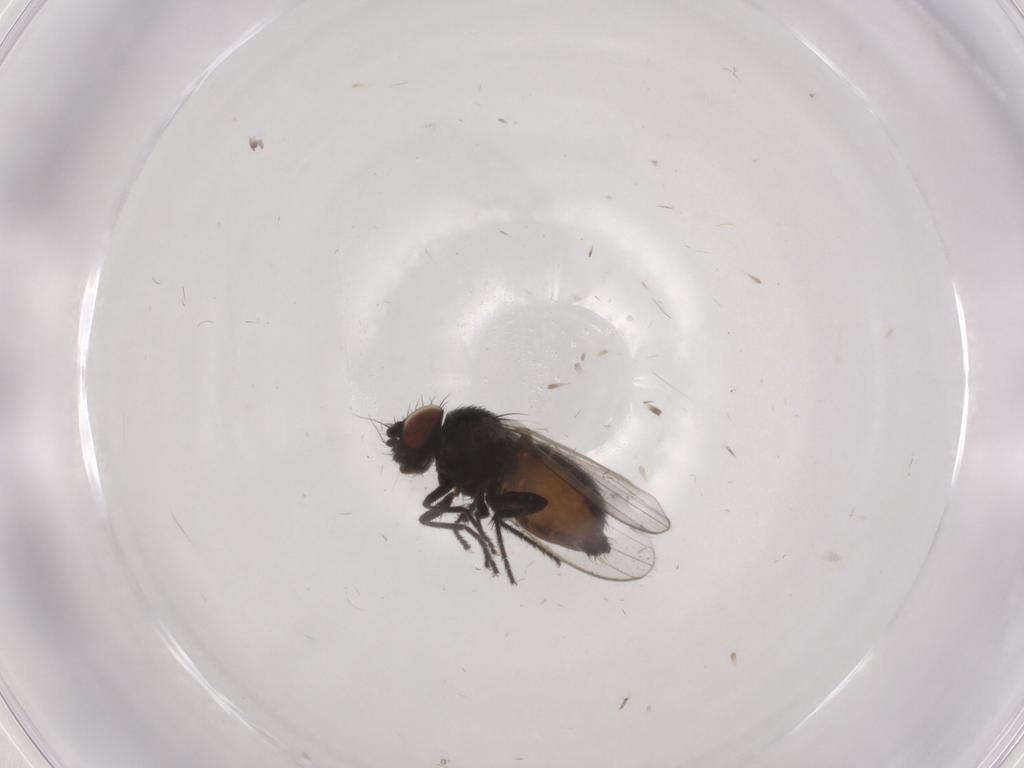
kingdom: Animalia
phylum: Arthropoda
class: Insecta
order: Diptera
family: Milichiidae
